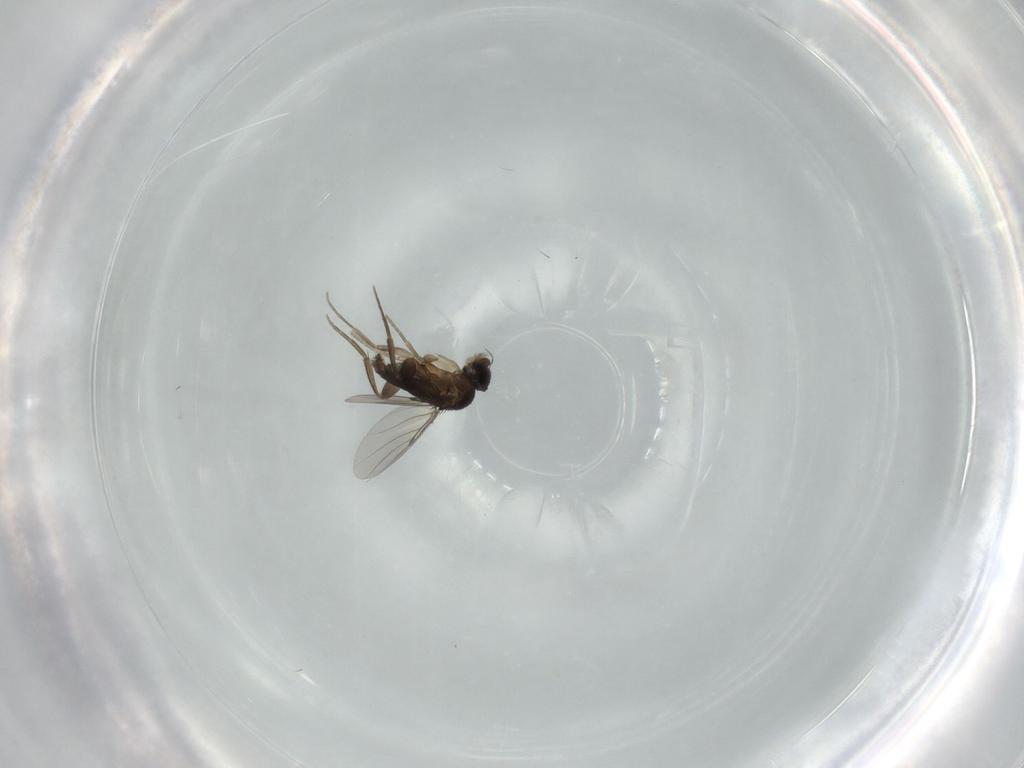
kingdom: Animalia
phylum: Arthropoda
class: Insecta
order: Diptera
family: Phoridae
